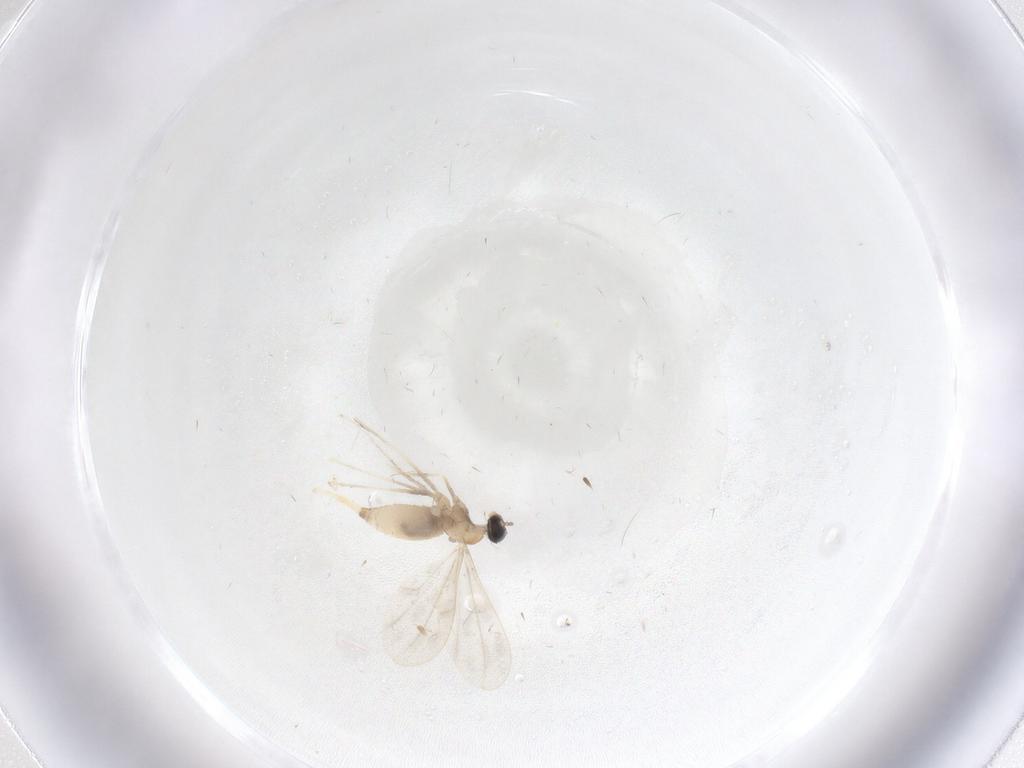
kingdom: Animalia
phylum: Arthropoda
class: Insecta
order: Diptera
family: Cecidomyiidae
